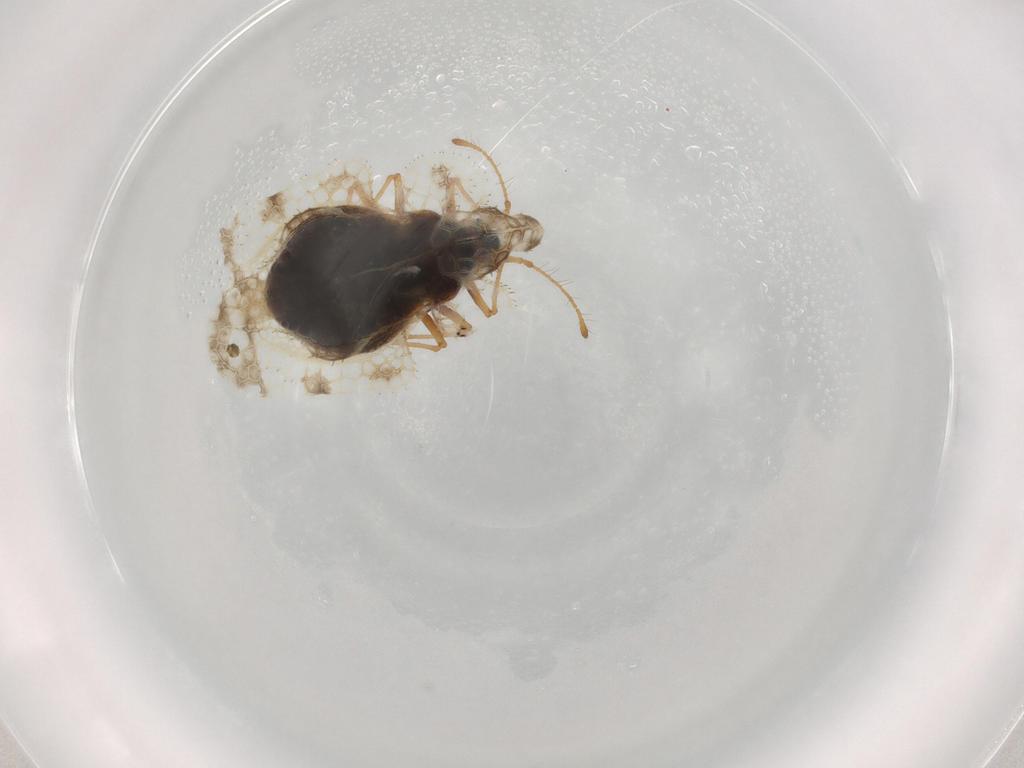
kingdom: Animalia
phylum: Arthropoda
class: Insecta
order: Hemiptera
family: Tingidae
